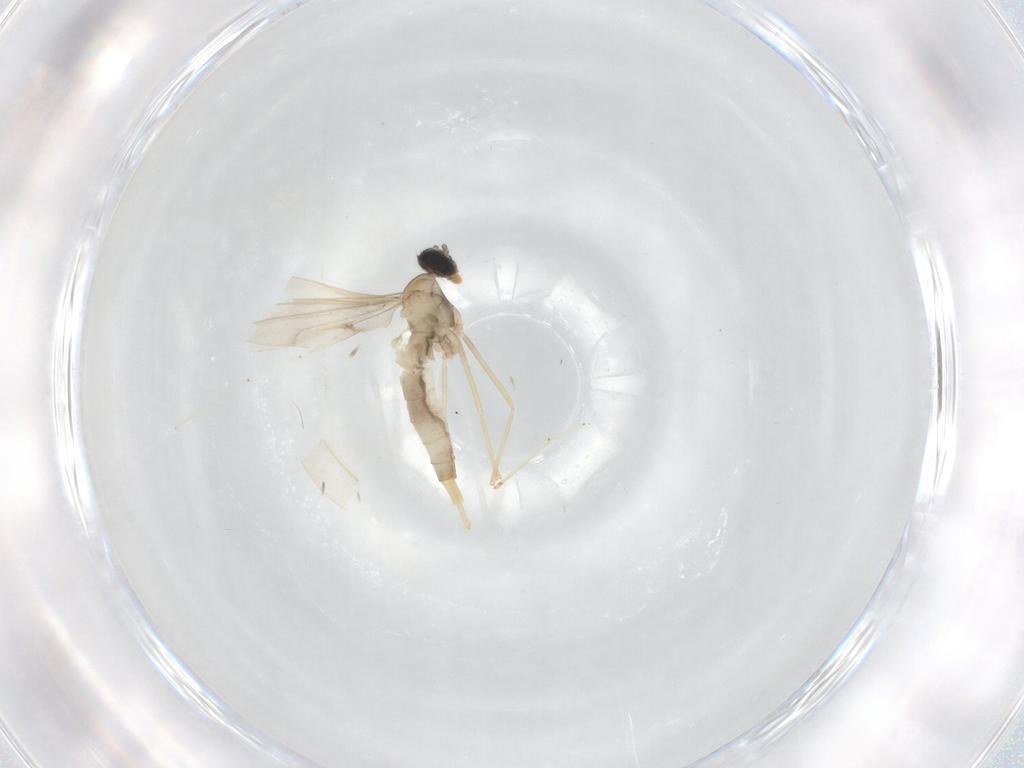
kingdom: Animalia
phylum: Arthropoda
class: Insecta
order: Diptera
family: Cecidomyiidae
